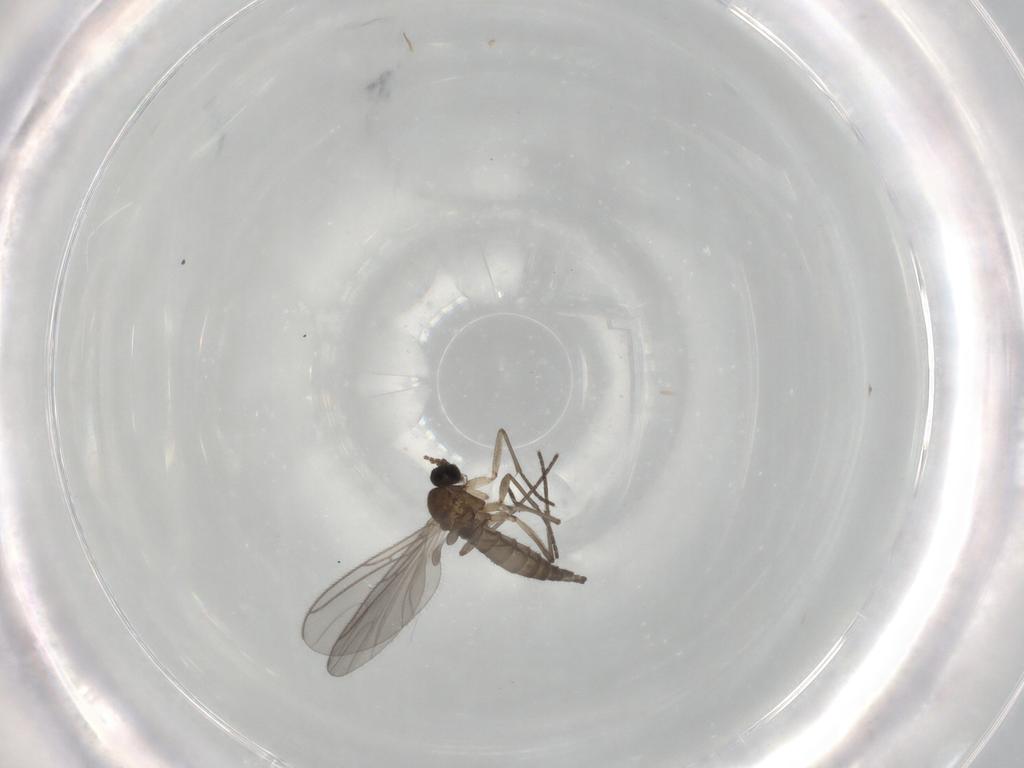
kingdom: Animalia
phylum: Arthropoda
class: Insecta
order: Diptera
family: Sciaridae
